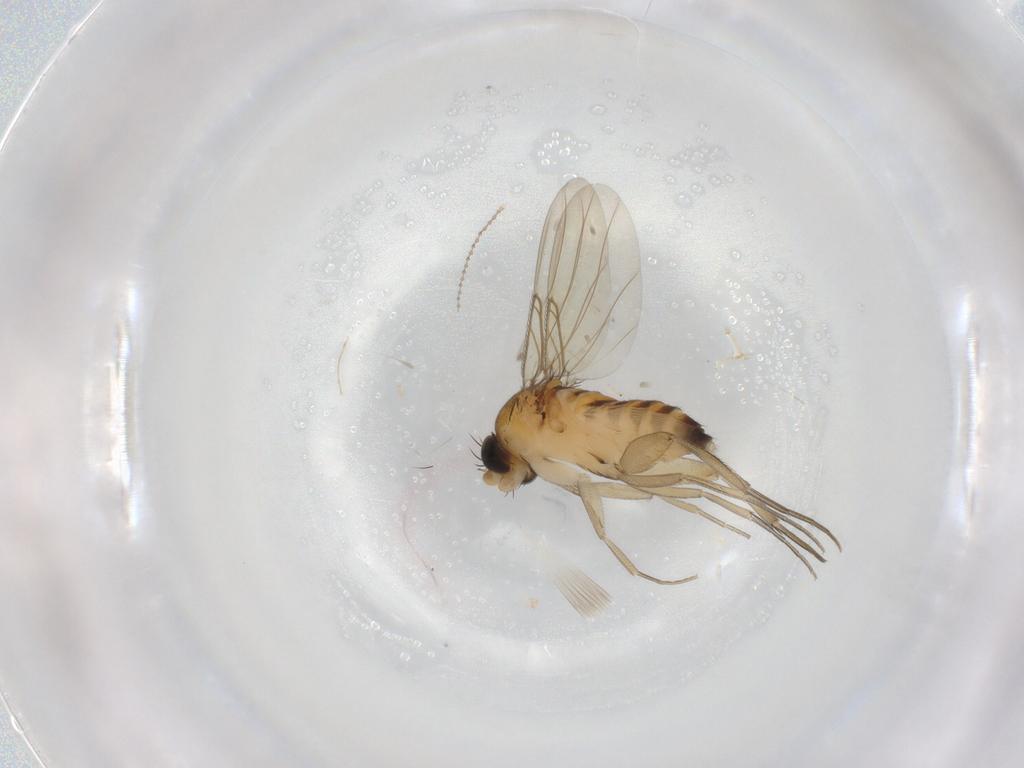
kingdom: Animalia
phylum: Arthropoda
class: Insecta
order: Diptera
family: Phoridae
